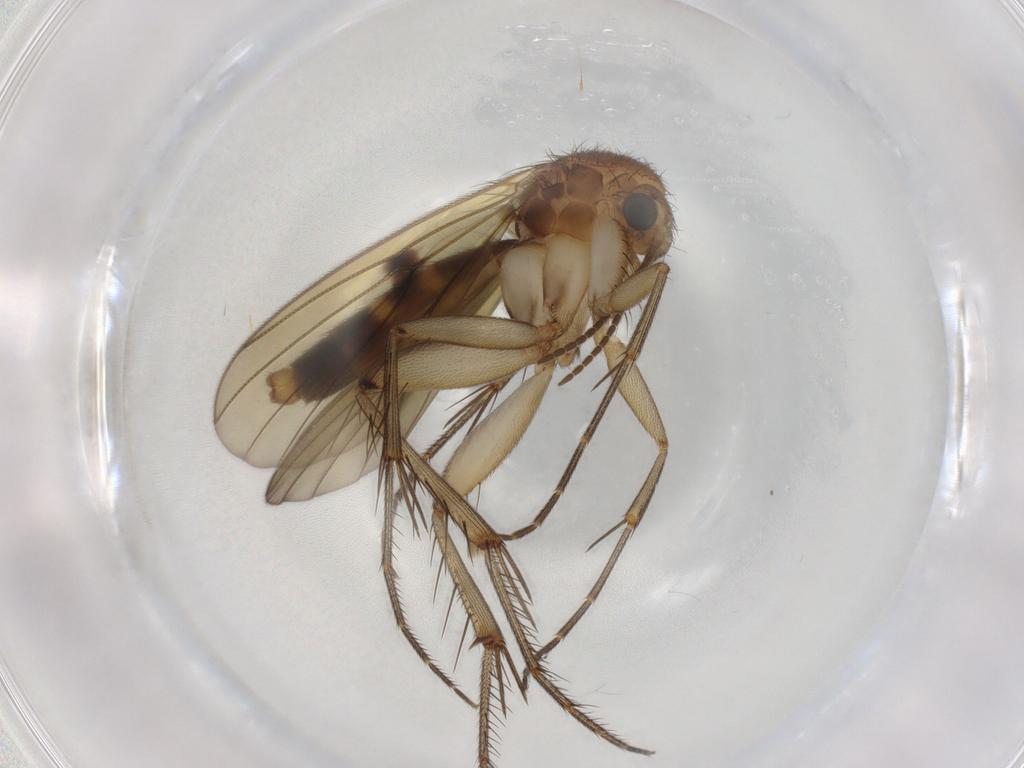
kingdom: Animalia
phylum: Arthropoda
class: Insecta
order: Diptera
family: Chironomidae
